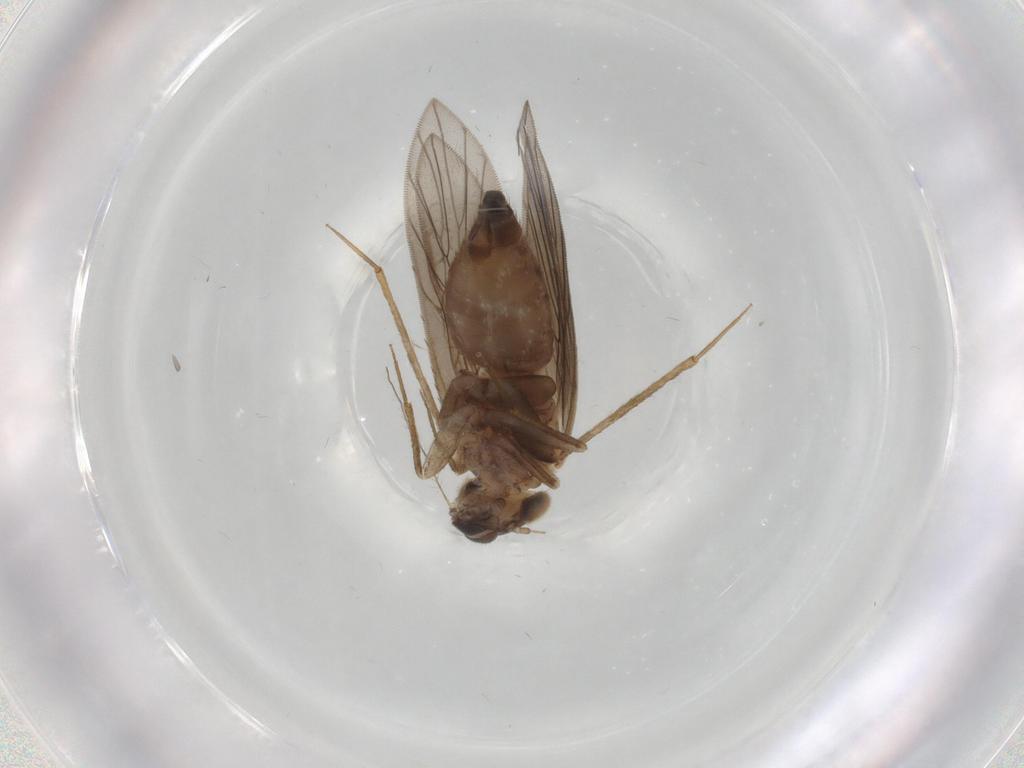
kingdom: Animalia
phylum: Arthropoda
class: Insecta
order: Psocodea
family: Lepidopsocidae
